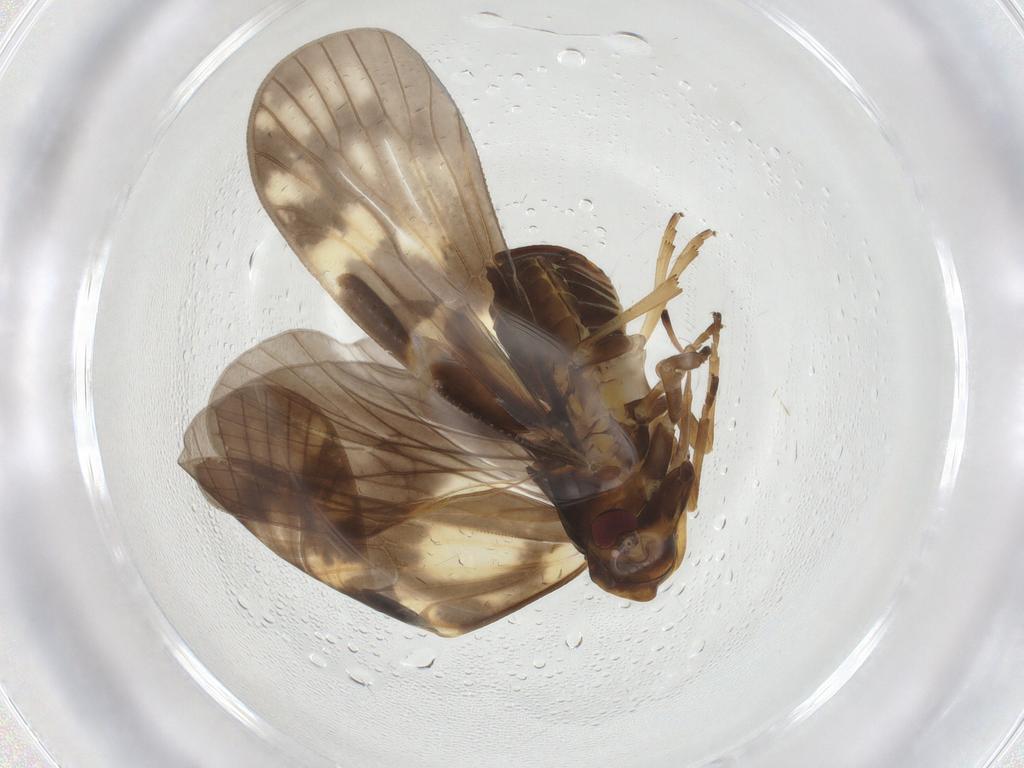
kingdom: Animalia
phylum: Arthropoda
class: Insecta
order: Hemiptera
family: Cixiidae
